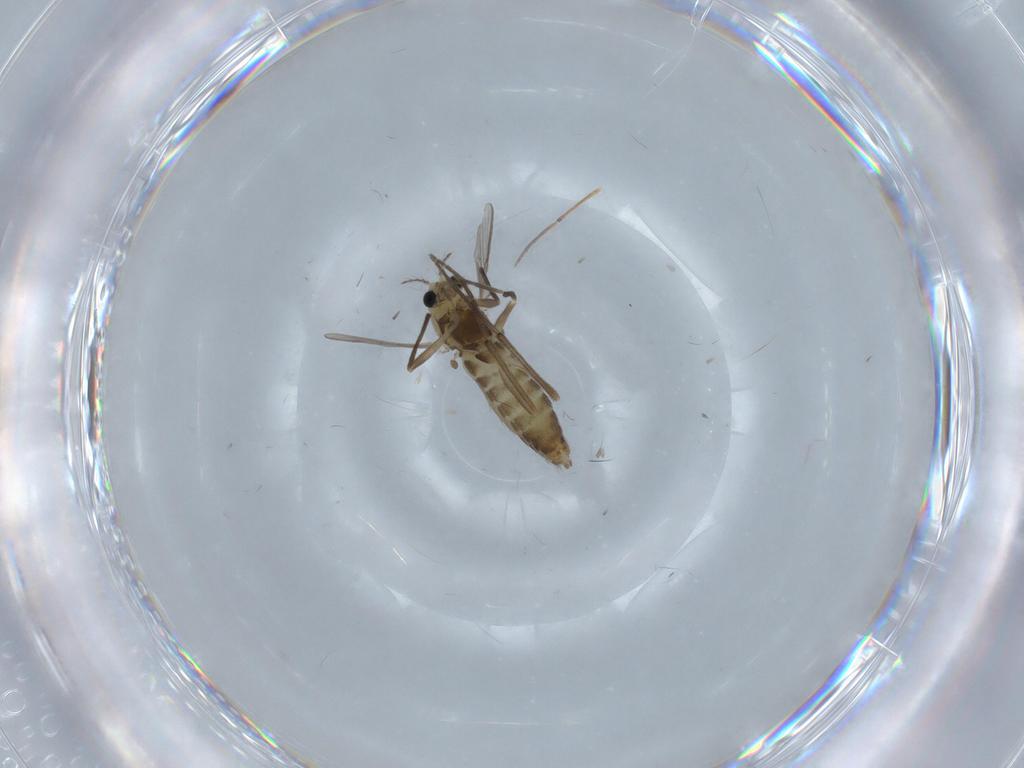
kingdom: Animalia
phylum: Arthropoda
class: Insecta
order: Diptera
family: Chironomidae
